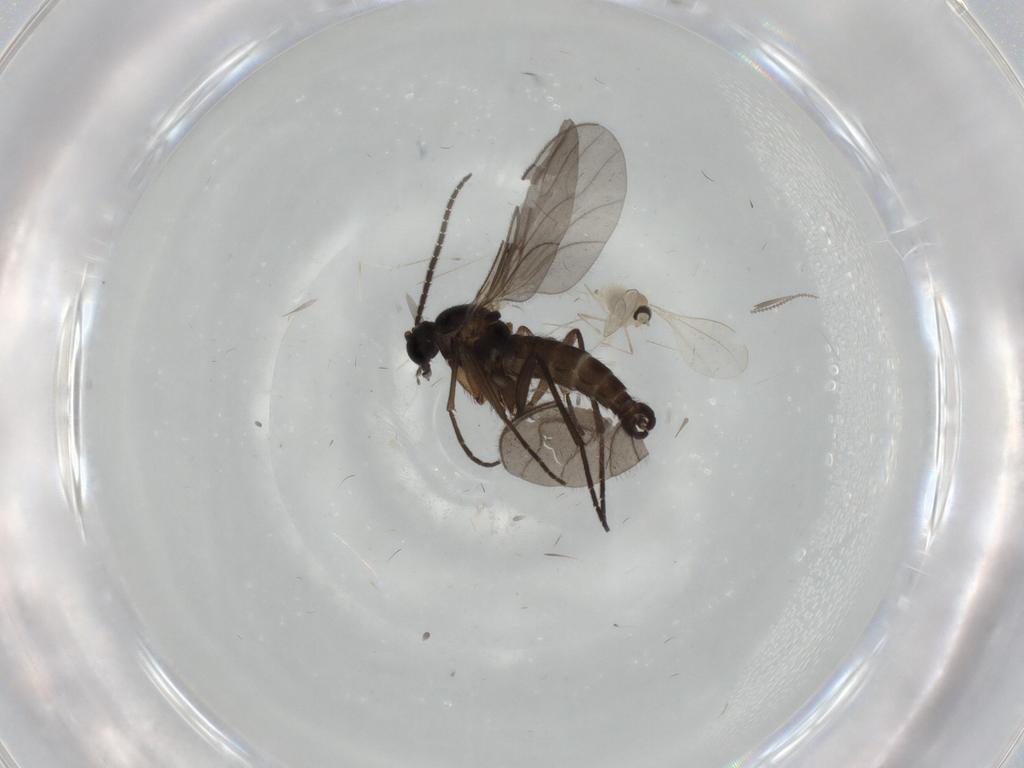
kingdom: Animalia
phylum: Arthropoda
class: Insecta
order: Diptera
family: Sciaridae
